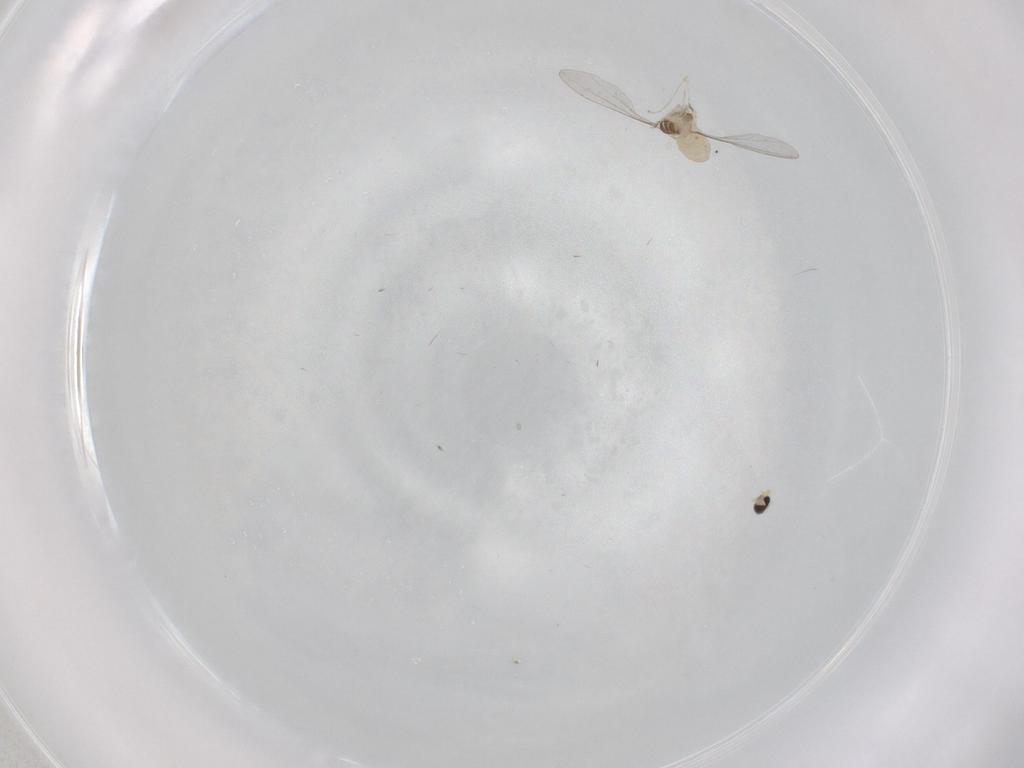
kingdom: Animalia
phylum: Arthropoda
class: Insecta
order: Diptera
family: Cecidomyiidae
